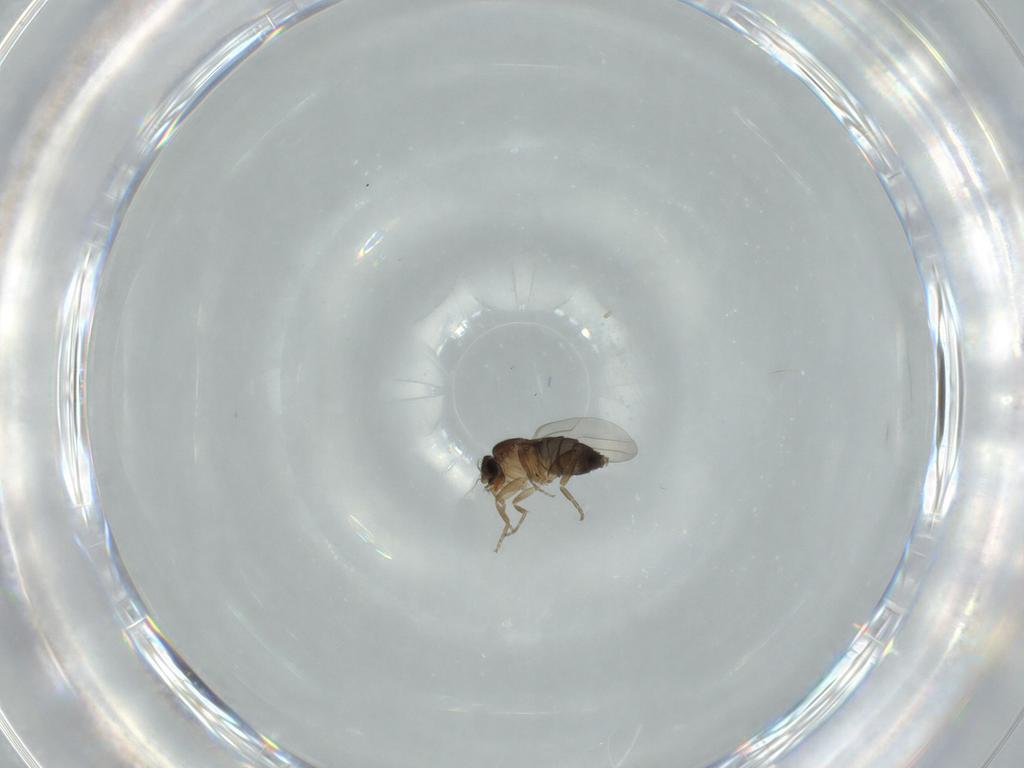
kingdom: Animalia
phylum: Arthropoda
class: Insecta
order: Diptera
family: Phoridae
